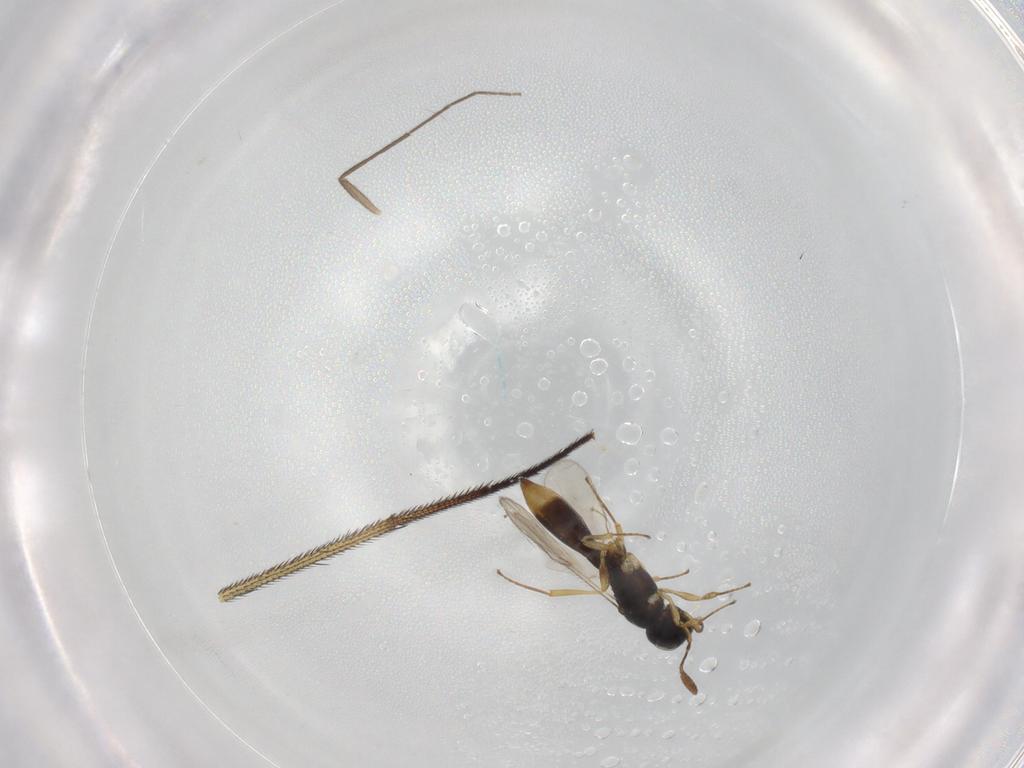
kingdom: Animalia
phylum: Arthropoda
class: Insecta
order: Hymenoptera
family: Scelionidae
